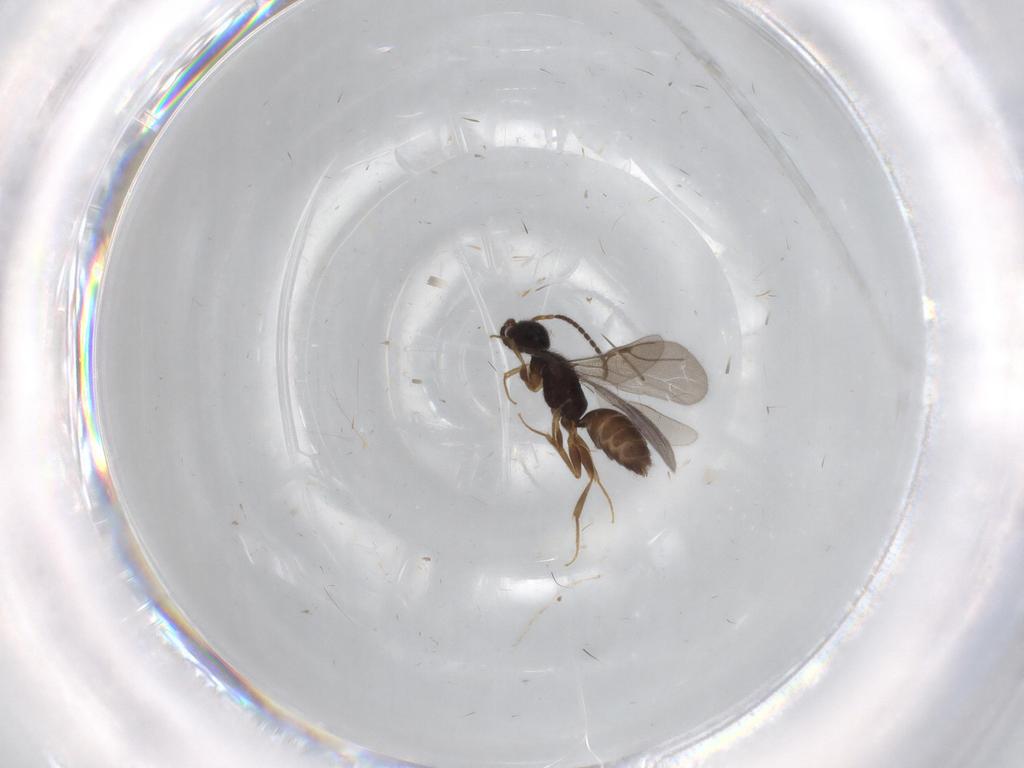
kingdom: Animalia
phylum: Arthropoda
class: Insecta
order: Hymenoptera
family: Bethylidae
